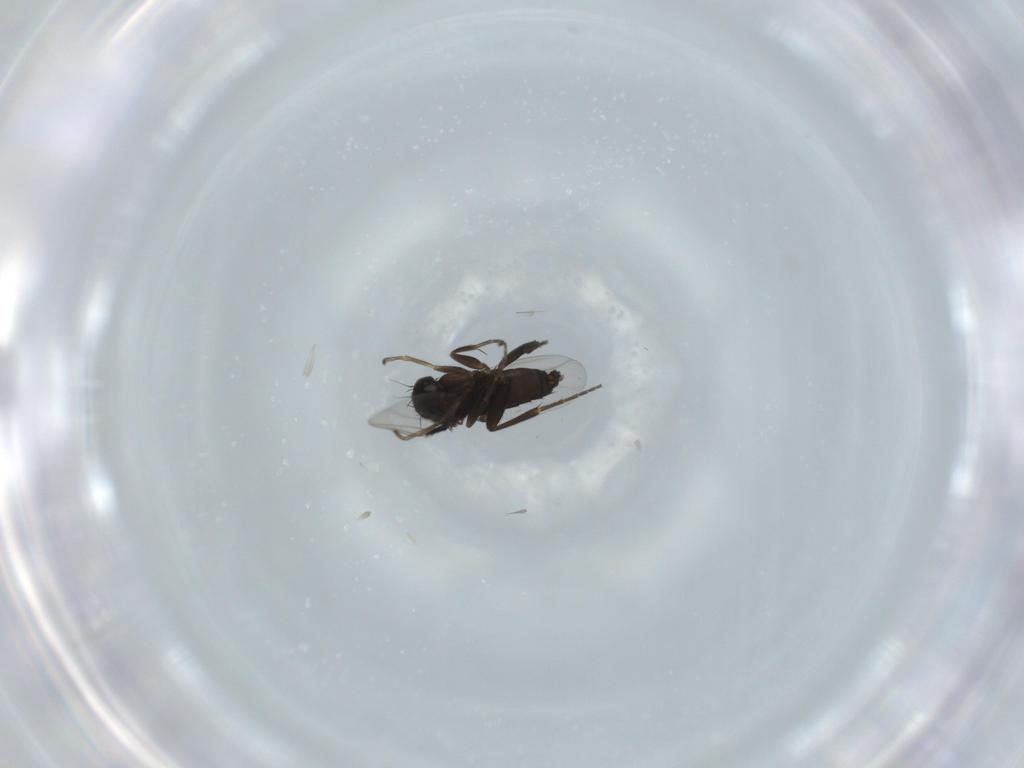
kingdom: Animalia
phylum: Arthropoda
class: Insecta
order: Diptera
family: Phoridae
